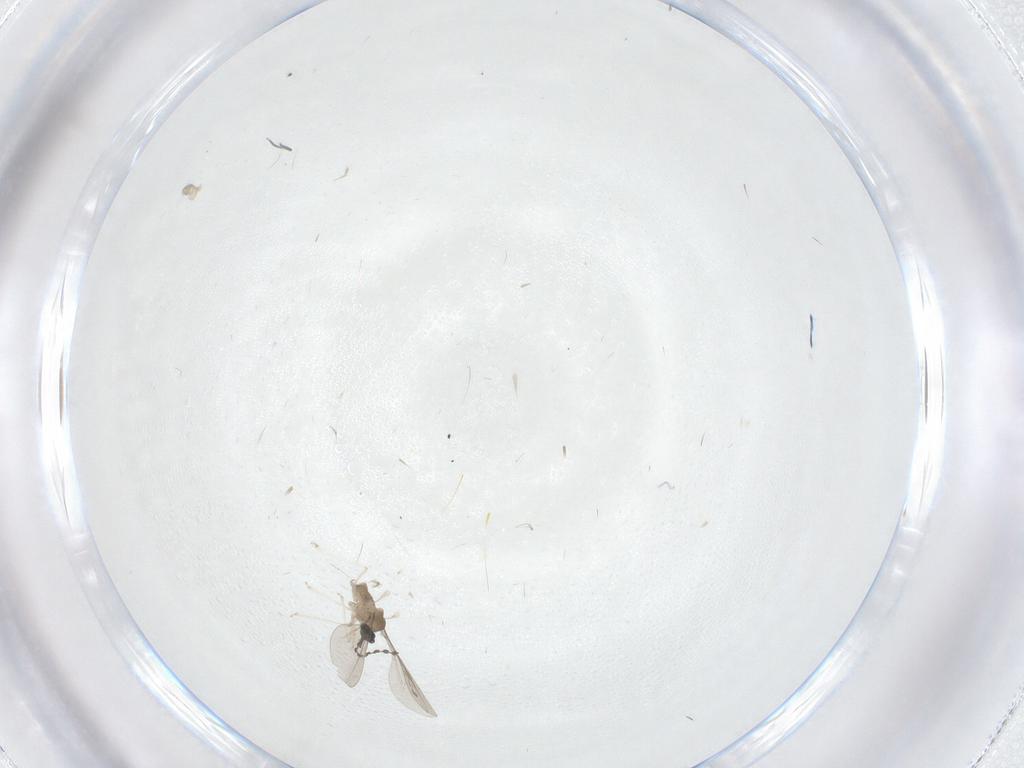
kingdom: Animalia
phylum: Arthropoda
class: Insecta
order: Diptera
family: Cecidomyiidae
